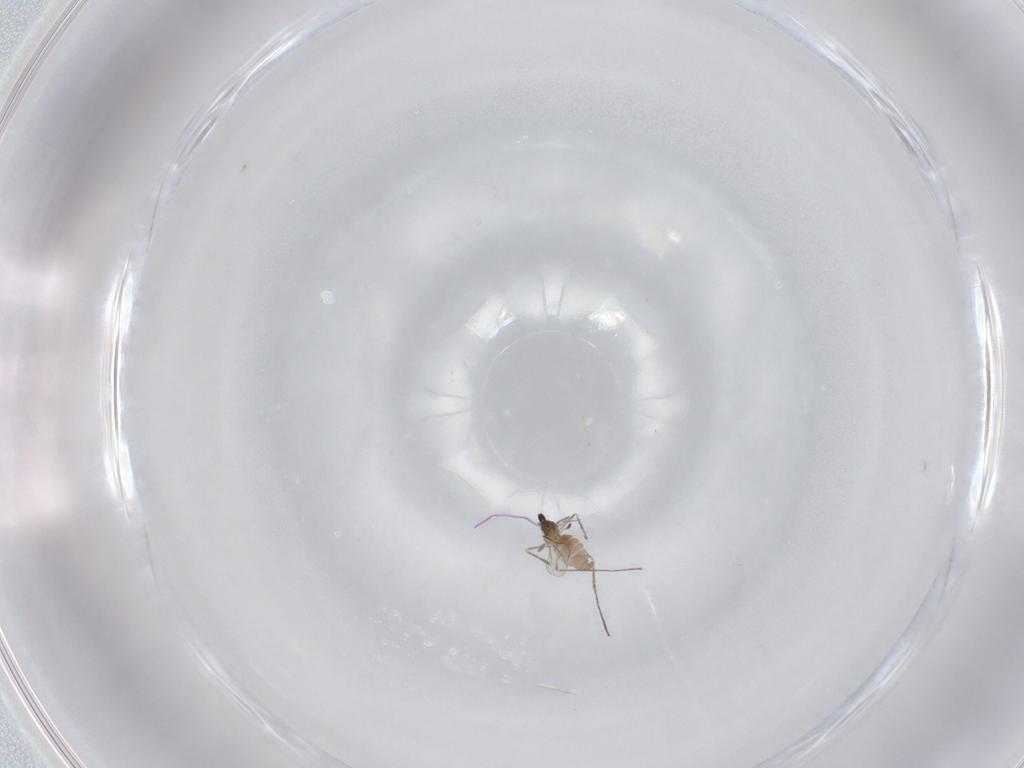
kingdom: Animalia
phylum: Arthropoda
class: Insecta
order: Diptera
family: Cecidomyiidae
